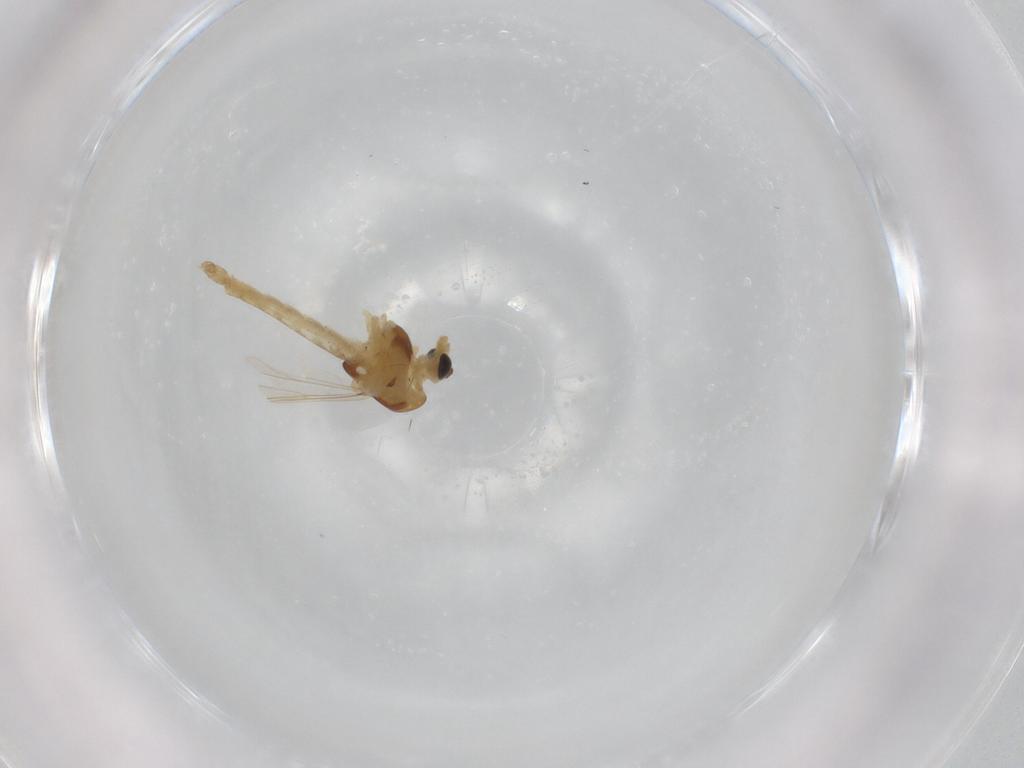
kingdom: Animalia
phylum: Arthropoda
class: Insecta
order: Diptera
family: Chironomidae
